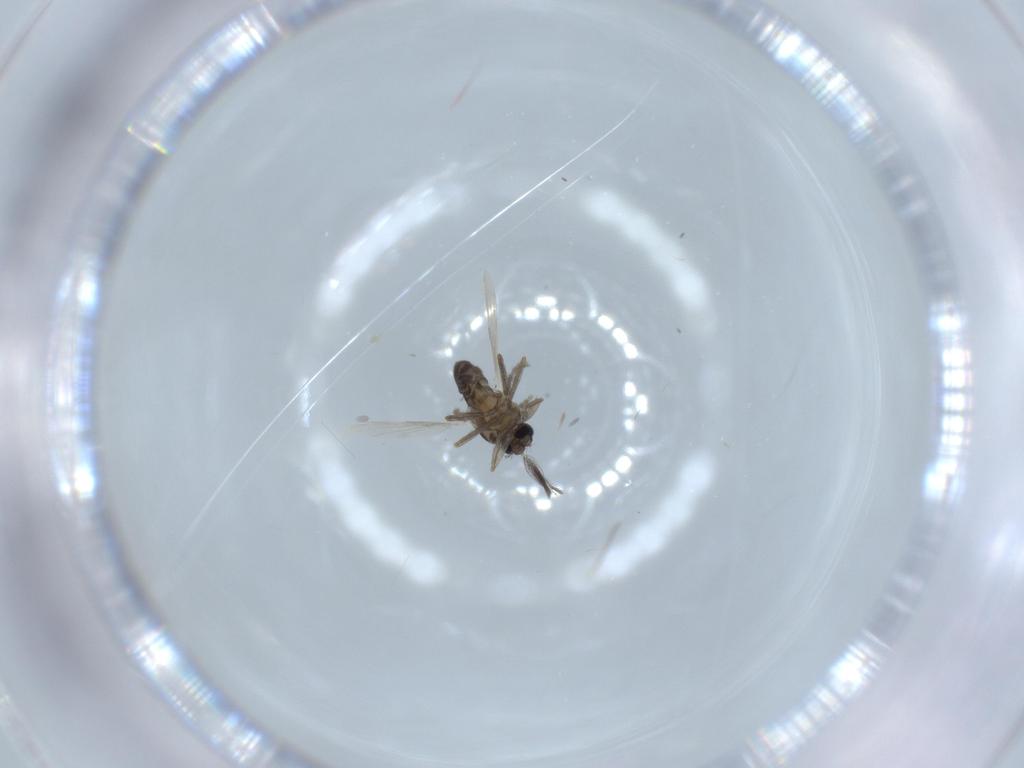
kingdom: Animalia
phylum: Arthropoda
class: Insecta
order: Diptera
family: Ceratopogonidae
